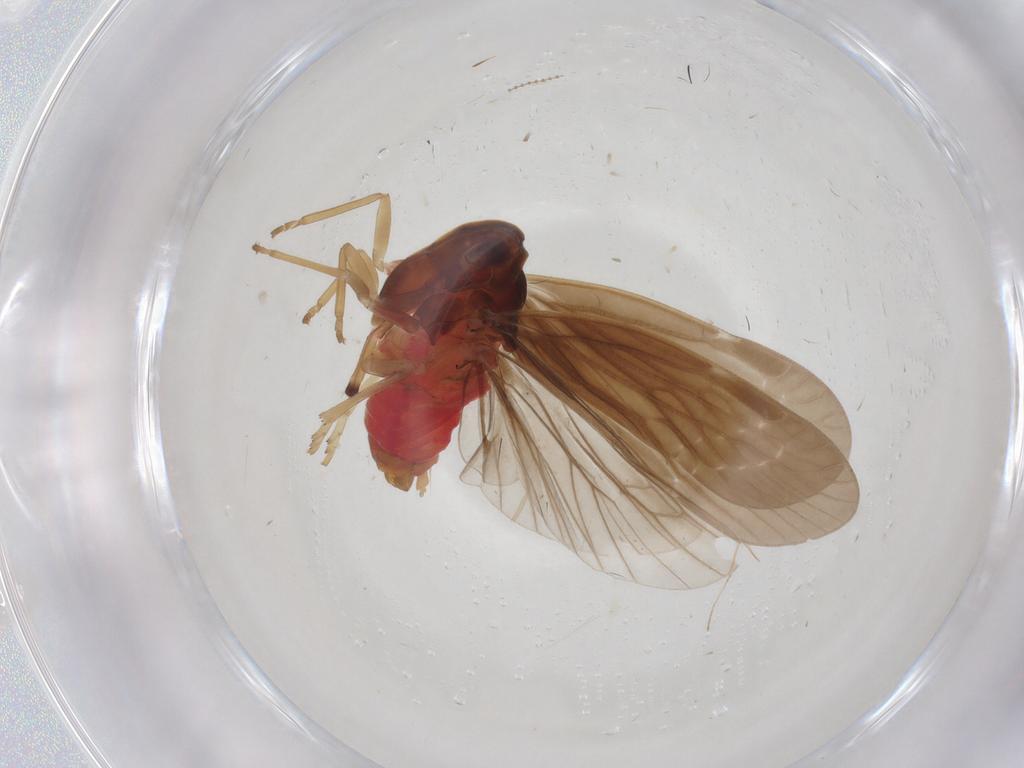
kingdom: Animalia
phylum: Arthropoda
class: Insecta
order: Hemiptera
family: Derbidae
